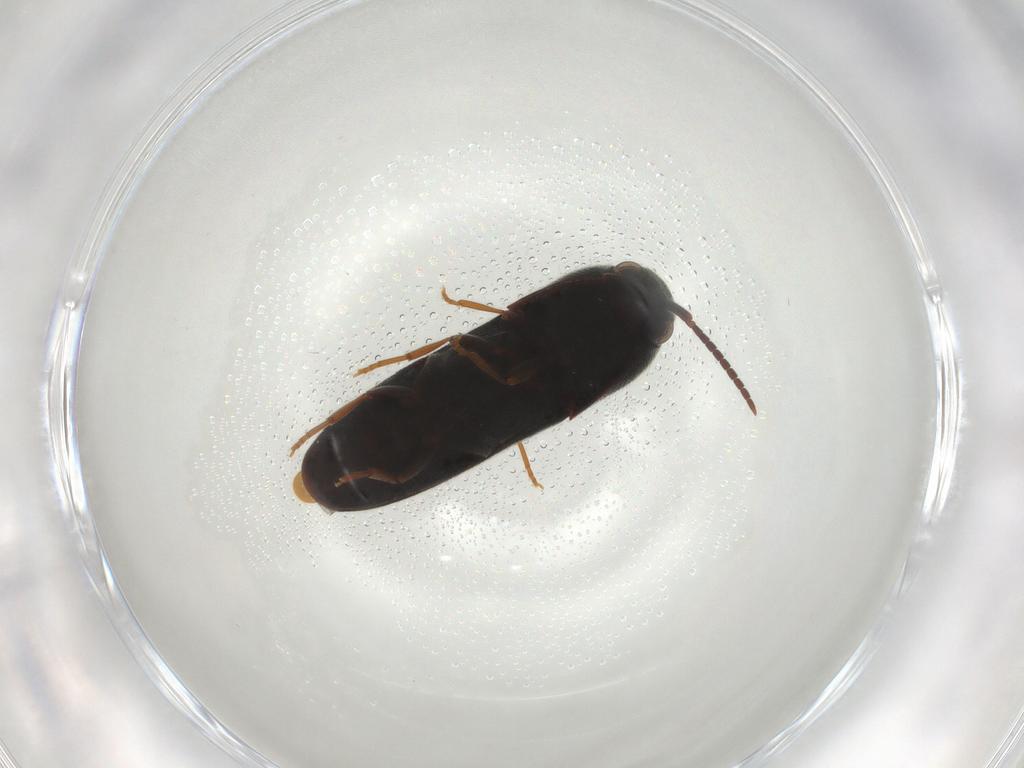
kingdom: Animalia
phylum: Arthropoda
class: Insecta
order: Coleoptera
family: Eucnemidae
